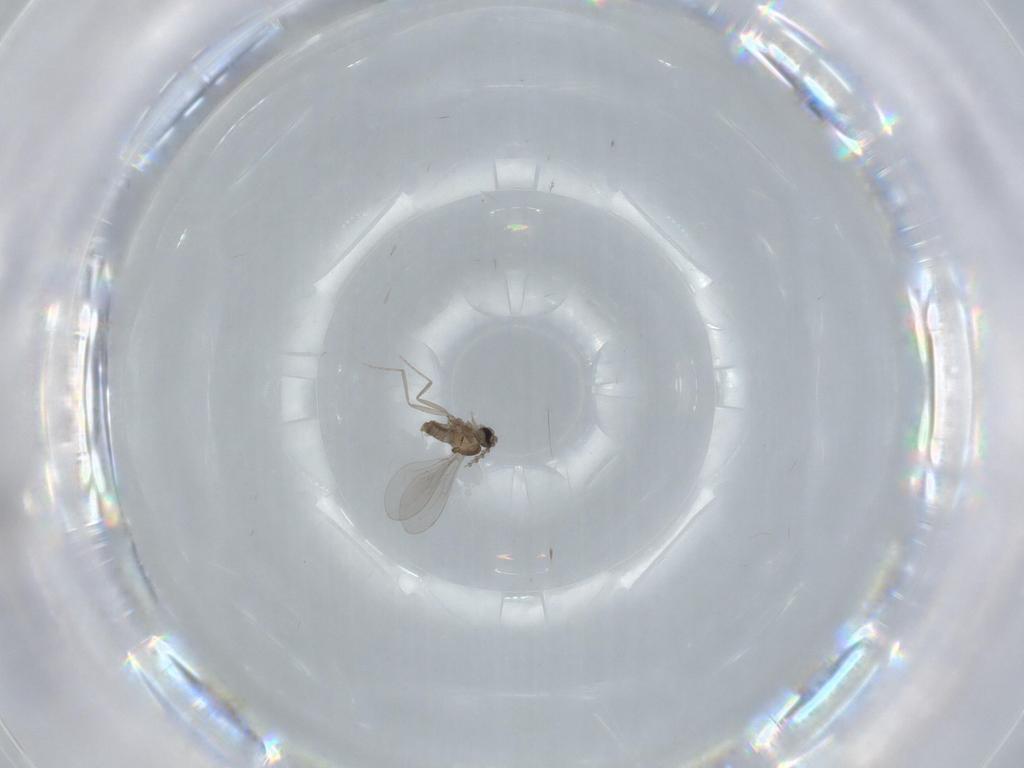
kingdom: Animalia
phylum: Arthropoda
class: Insecta
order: Diptera
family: Cecidomyiidae
